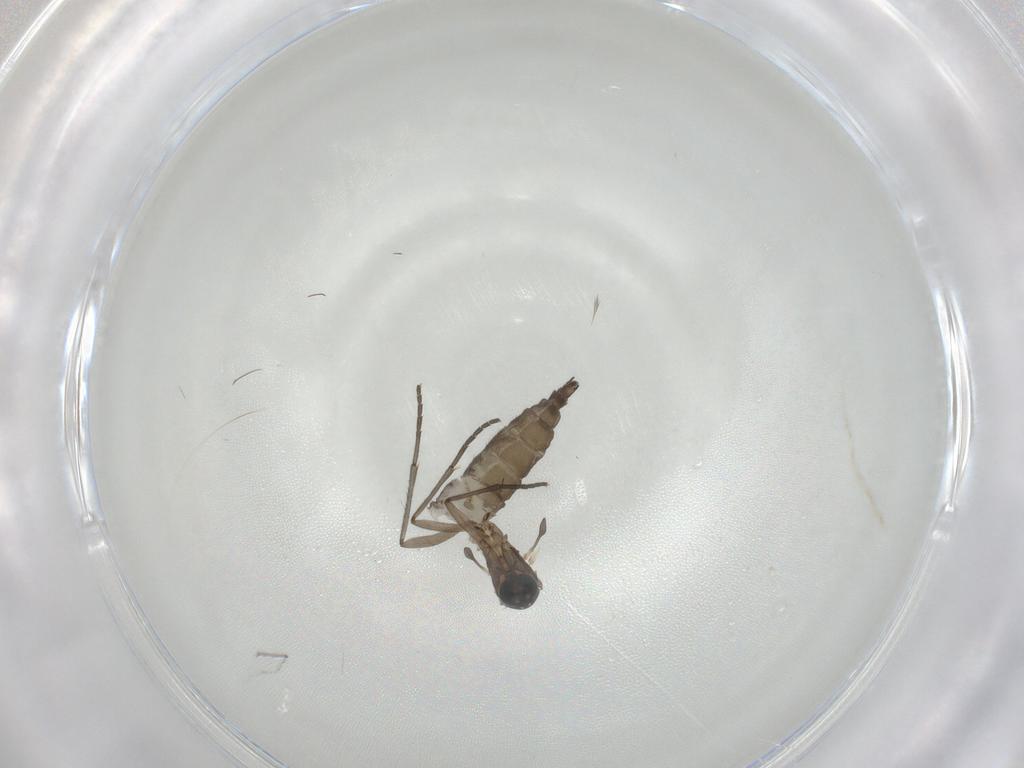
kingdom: Animalia
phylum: Arthropoda
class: Insecta
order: Diptera
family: Sciaridae
